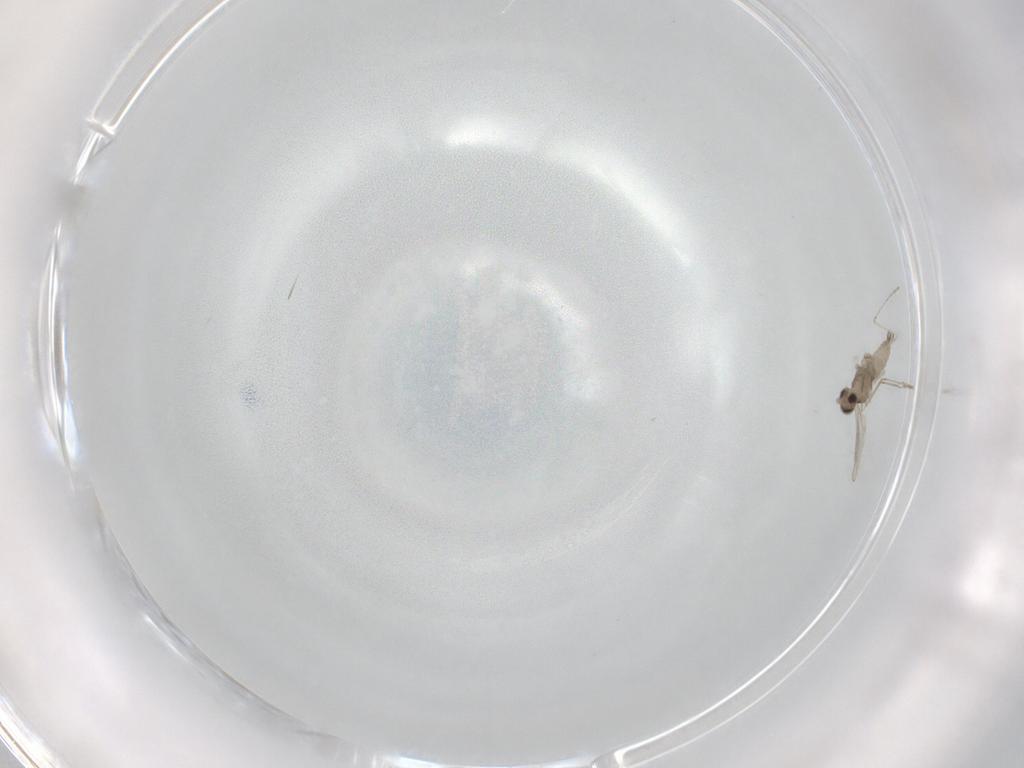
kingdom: Animalia
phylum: Arthropoda
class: Insecta
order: Diptera
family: Cecidomyiidae
